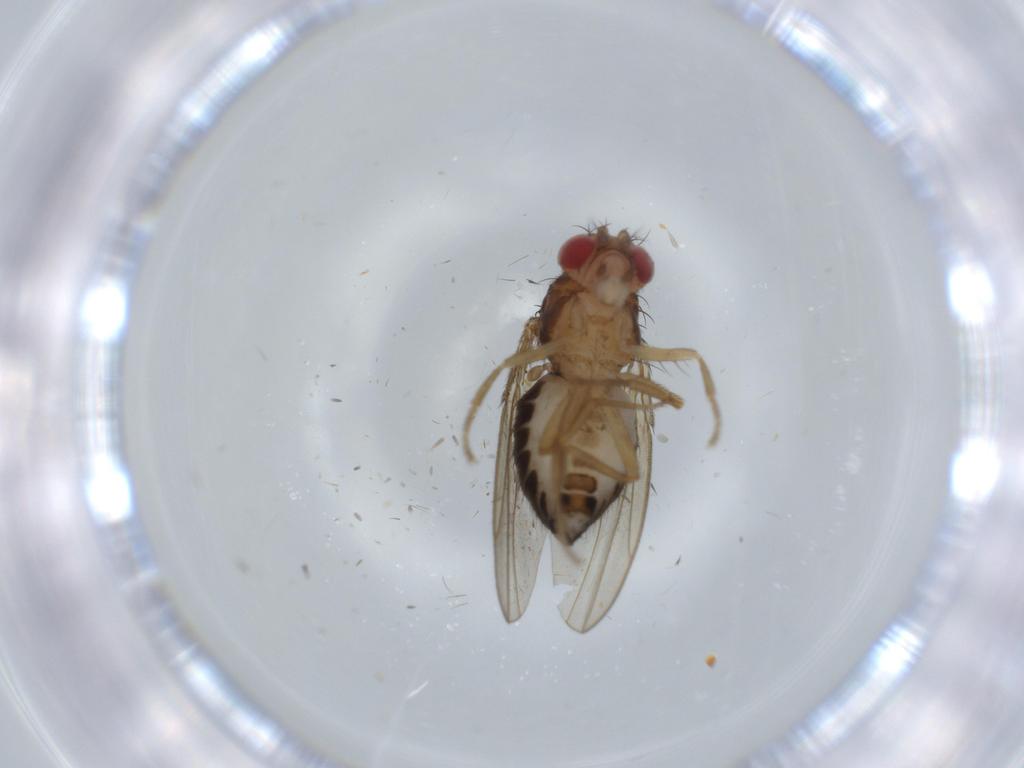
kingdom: Animalia
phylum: Arthropoda
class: Insecta
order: Diptera
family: Drosophilidae
